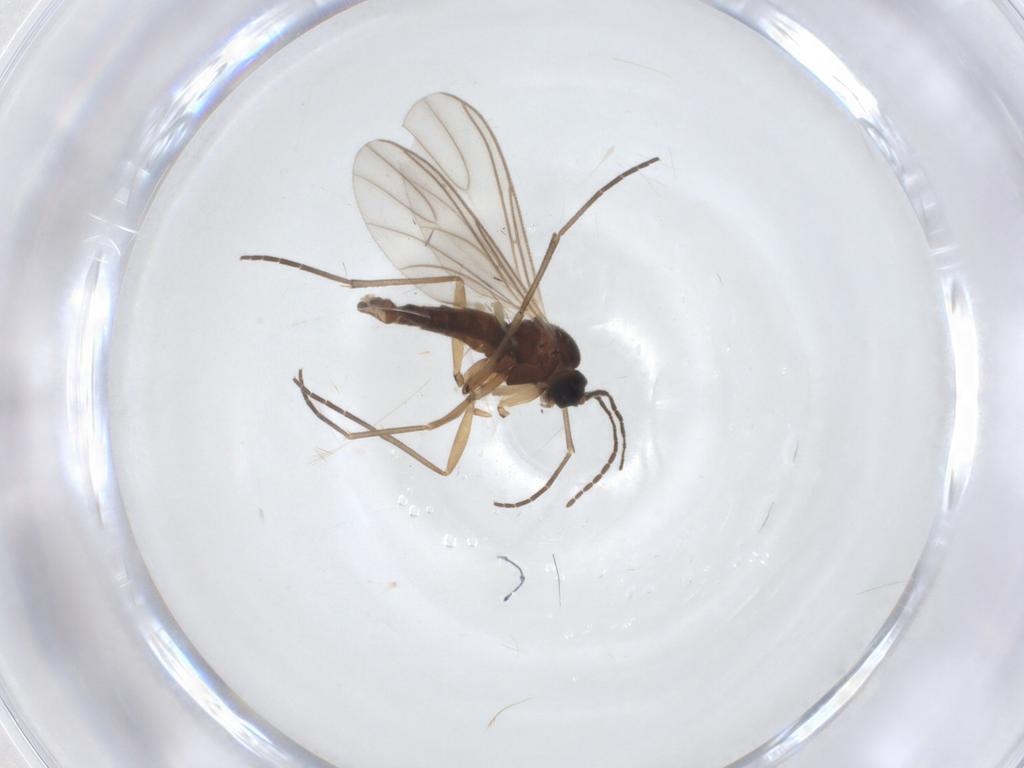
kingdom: Animalia
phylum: Arthropoda
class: Insecta
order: Diptera
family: Sciaridae
